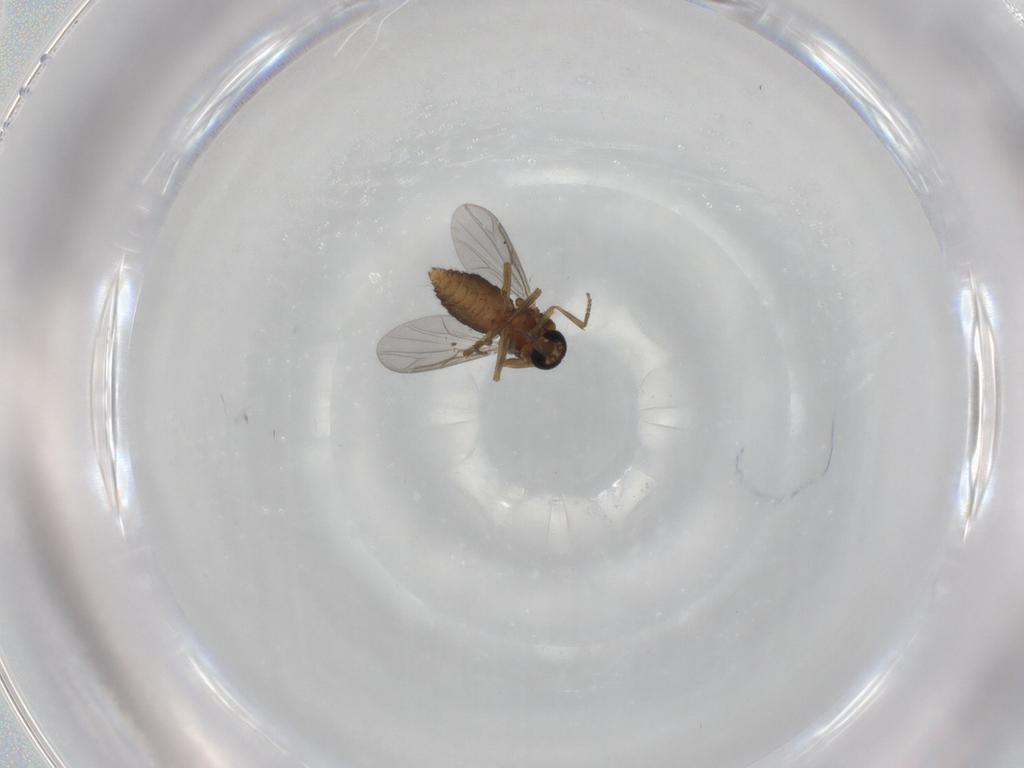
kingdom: Animalia
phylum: Arthropoda
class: Insecta
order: Diptera
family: Ceratopogonidae
